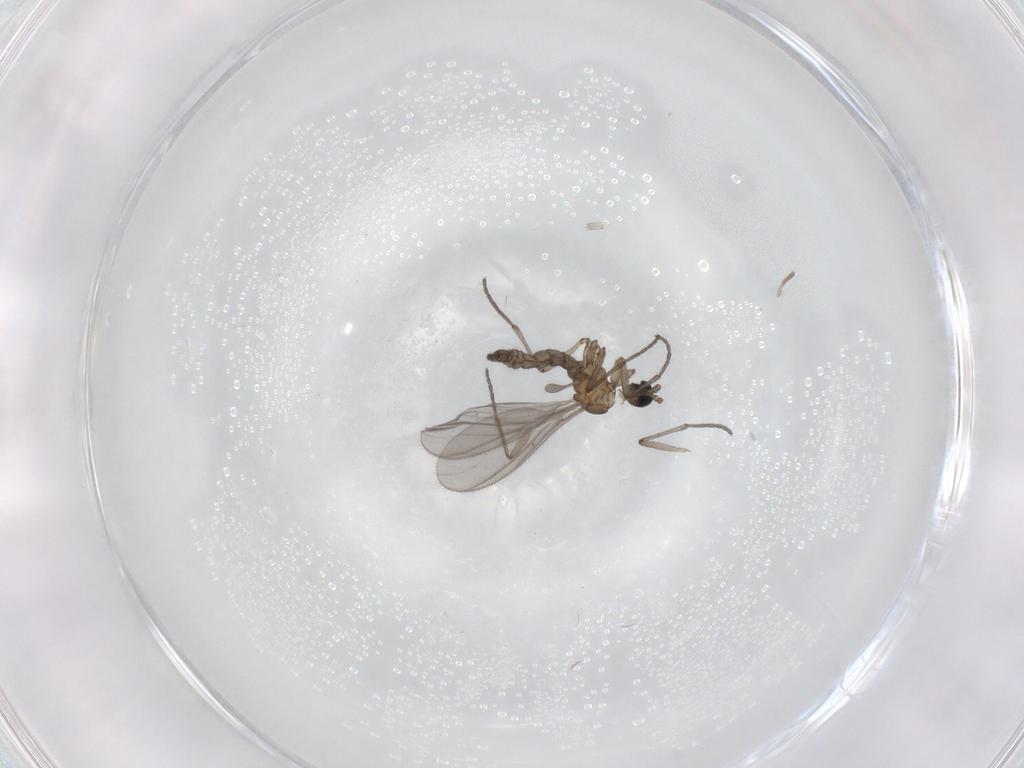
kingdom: Animalia
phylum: Arthropoda
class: Insecta
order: Diptera
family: Sciaridae
